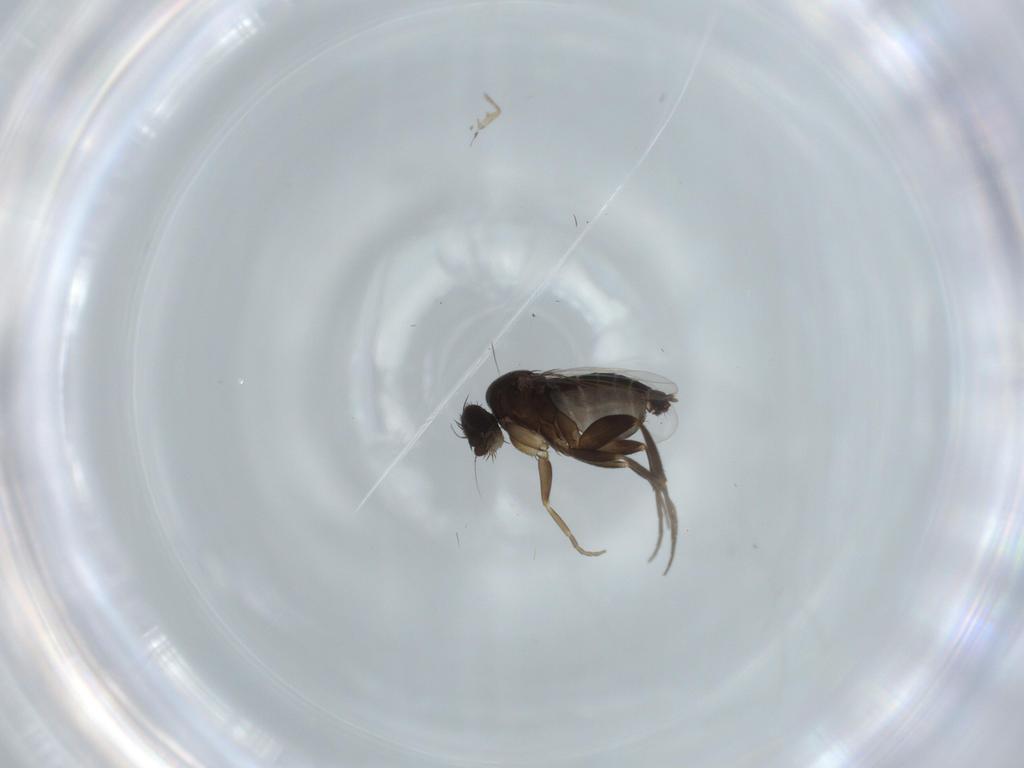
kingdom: Animalia
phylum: Arthropoda
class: Insecta
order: Diptera
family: Phoridae
